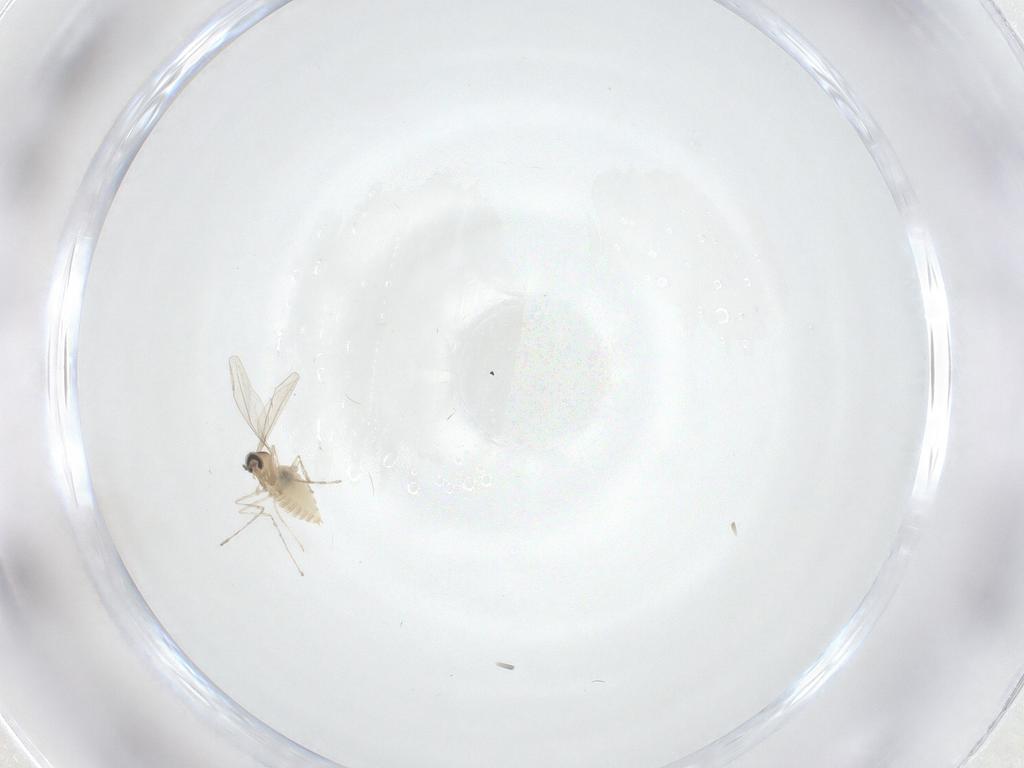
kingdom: Animalia
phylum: Arthropoda
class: Insecta
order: Diptera
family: Cecidomyiidae
